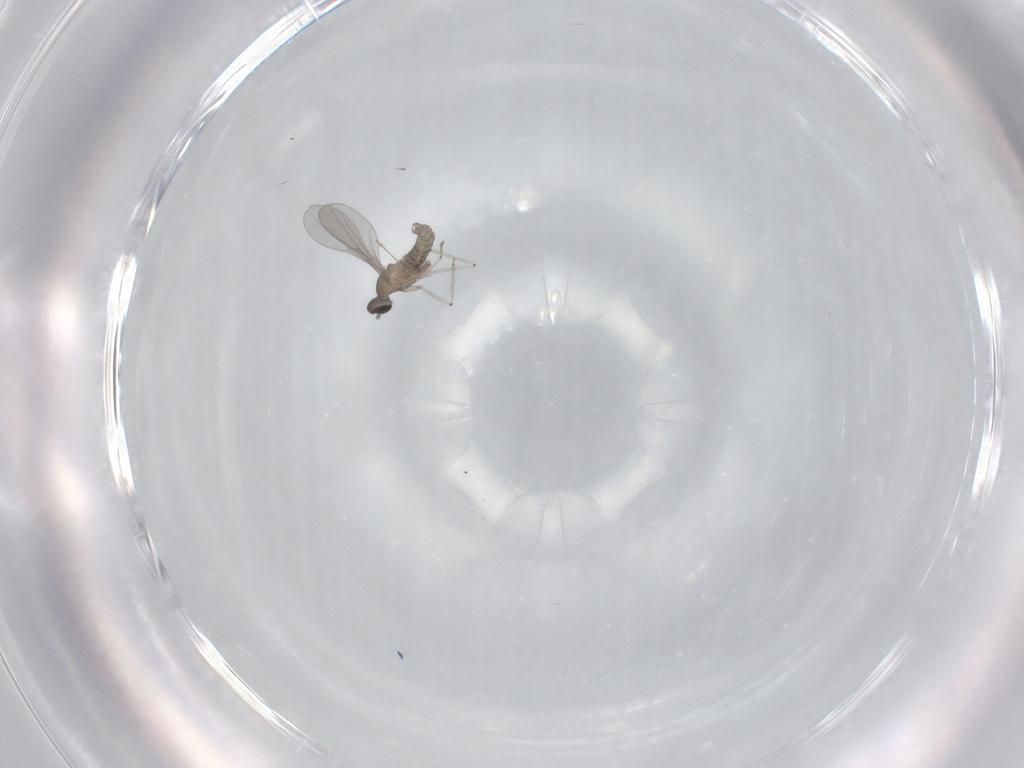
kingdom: Animalia
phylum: Arthropoda
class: Insecta
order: Diptera
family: Cecidomyiidae
